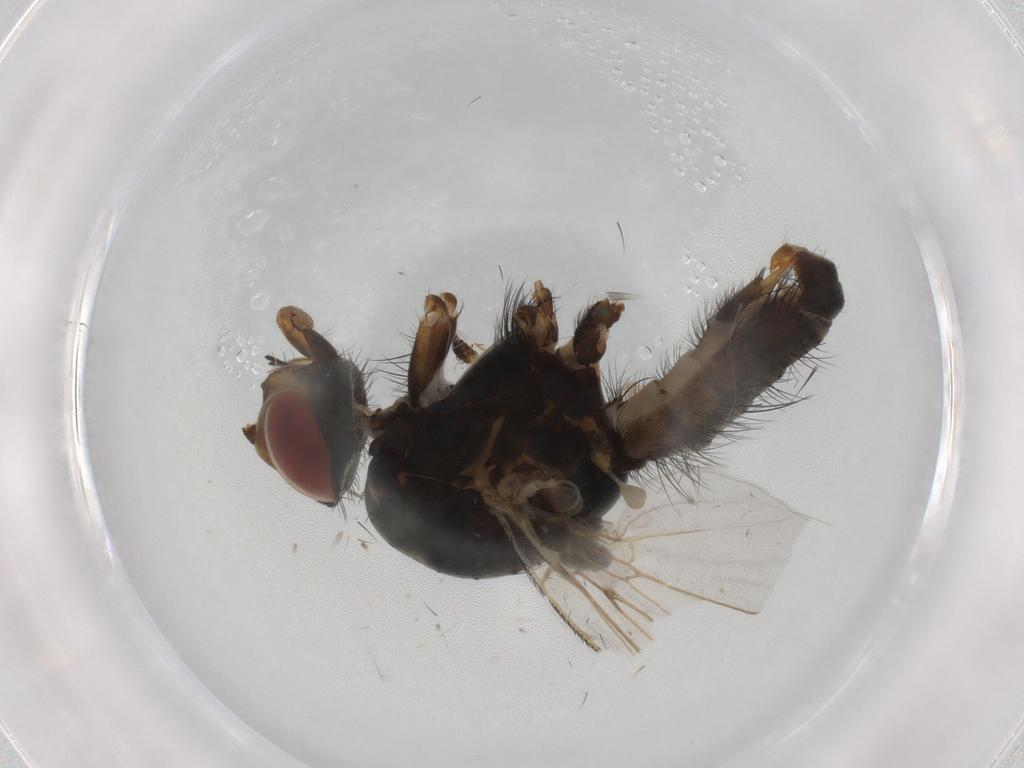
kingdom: Animalia
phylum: Arthropoda
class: Insecta
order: Diptera
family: Anthomyiidae
